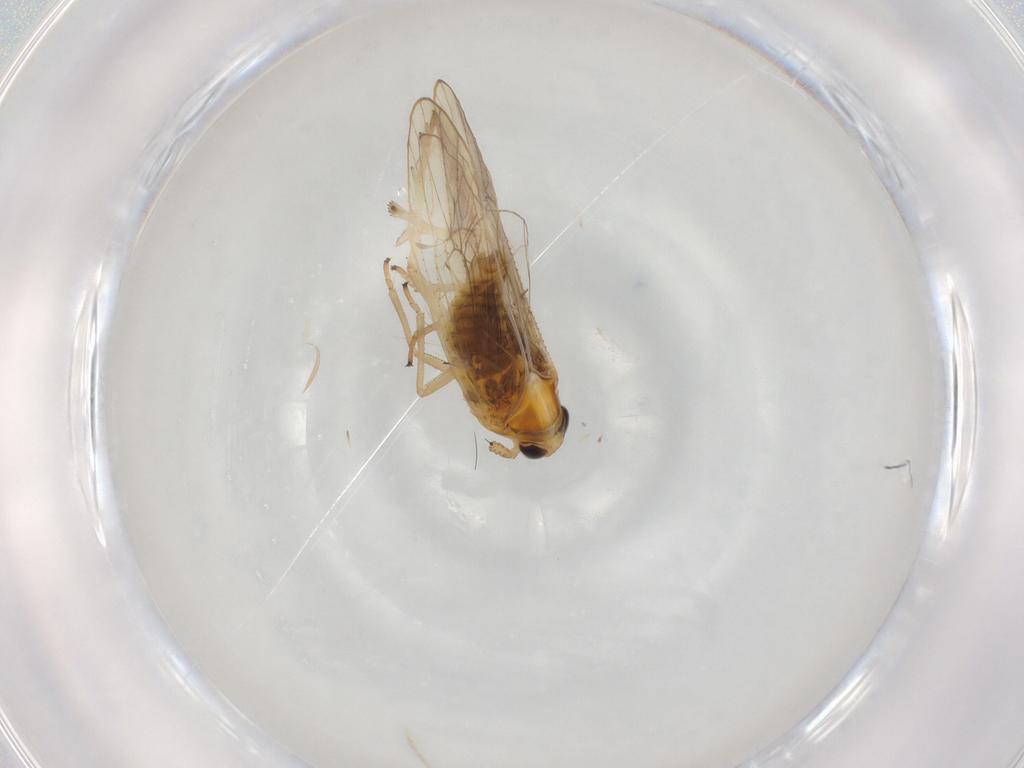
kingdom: Animalia
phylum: Arthropoda
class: Insecta
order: Hemiptera
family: Delphacidae
